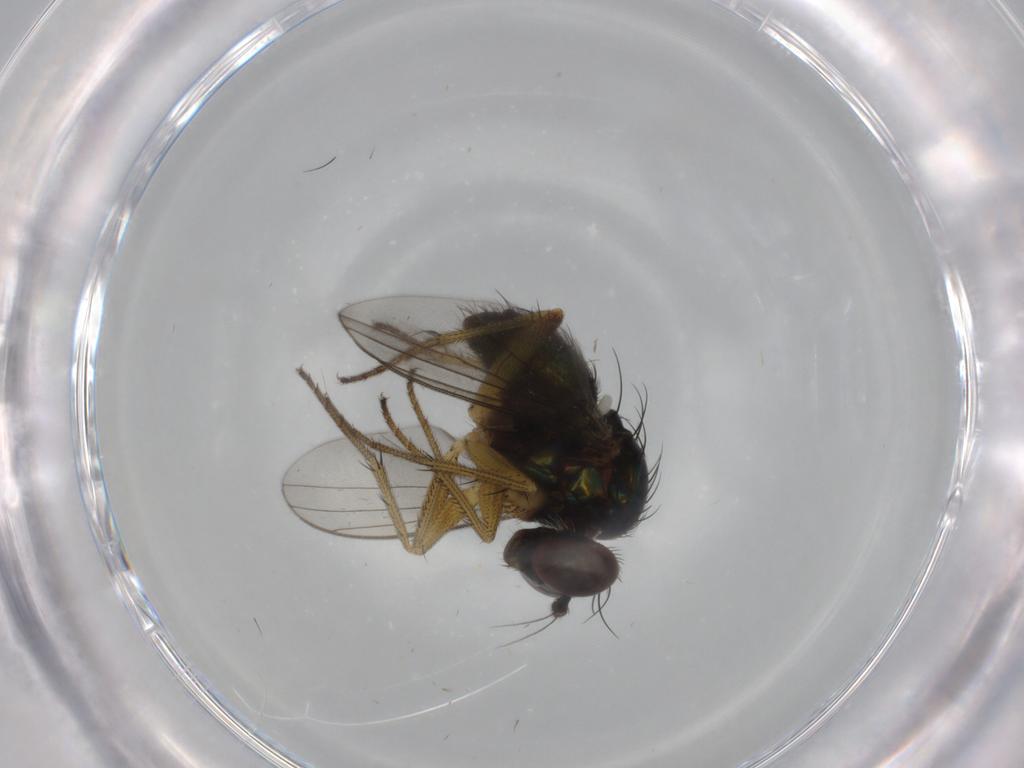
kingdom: Animalia
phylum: Arthropoda
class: Insecta
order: Diptera
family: Dolichopodidae
